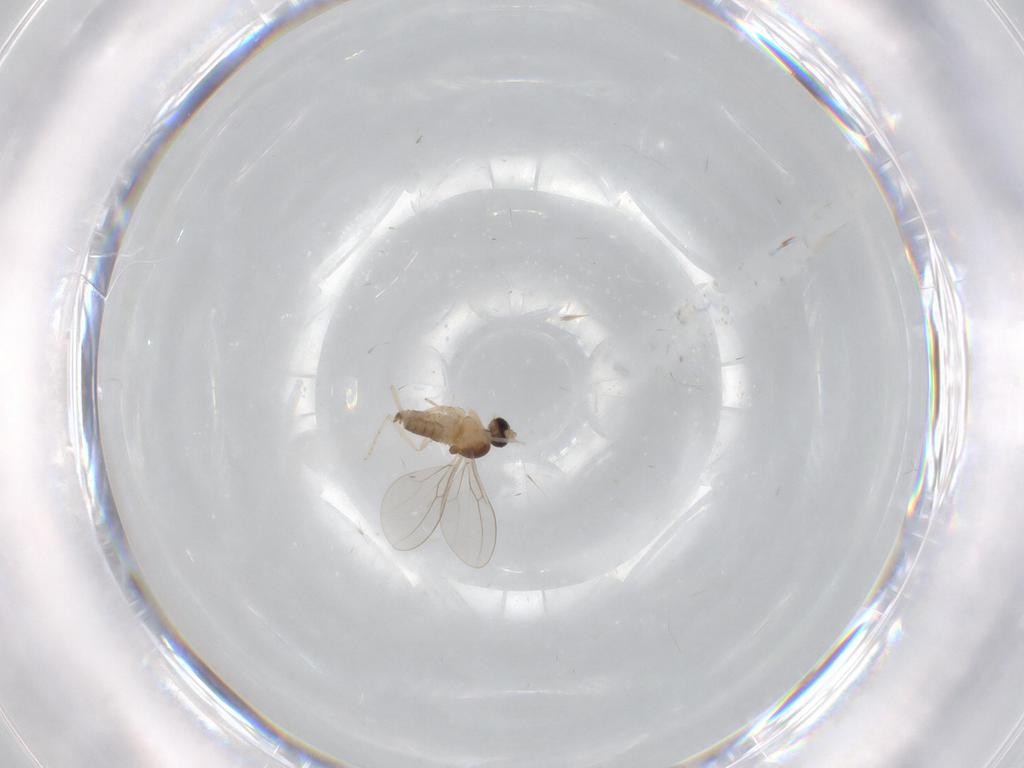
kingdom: Animalia
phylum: Arthropoda
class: Insecta
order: Diptera
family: Cecidomyiidae
